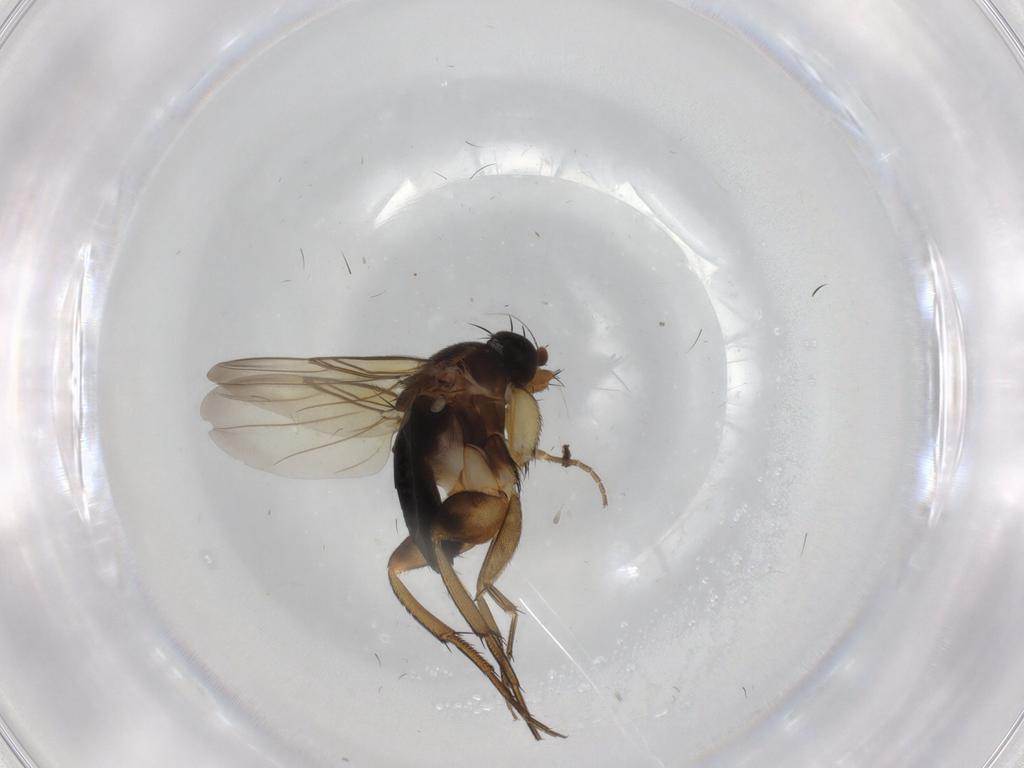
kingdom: Animalia
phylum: Arthropoda
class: Insecta
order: Diptera
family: Phoridae
